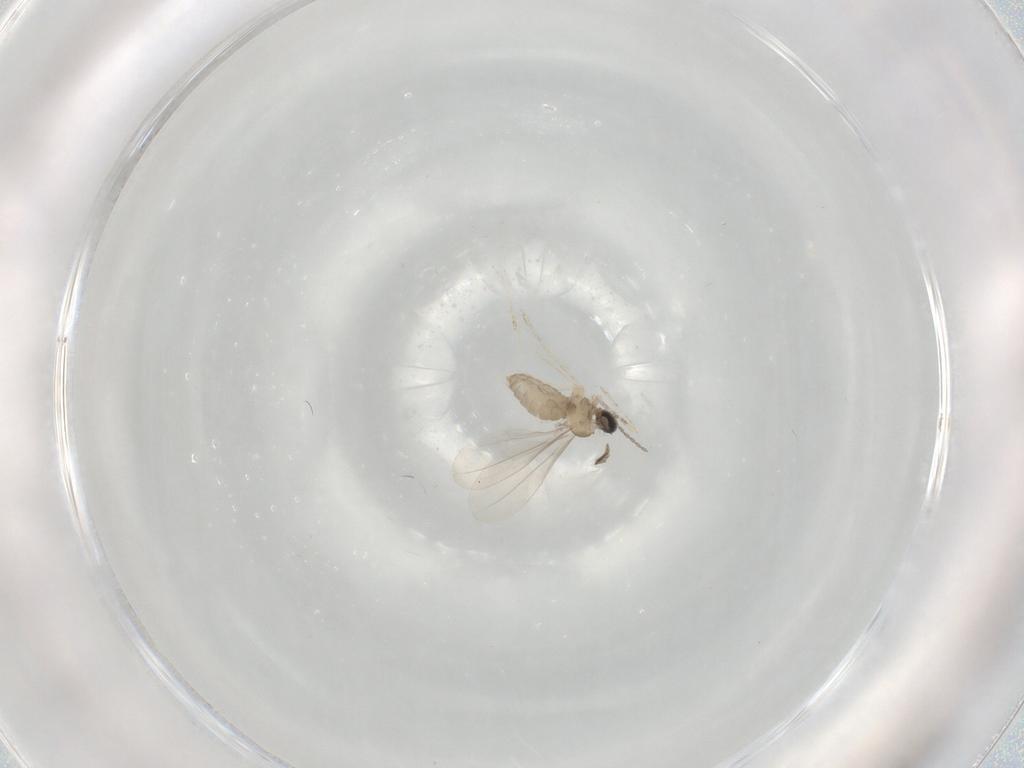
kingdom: Animalia
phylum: Arthropoda
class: Insecta
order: Diptera
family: Cecidomyiidae
